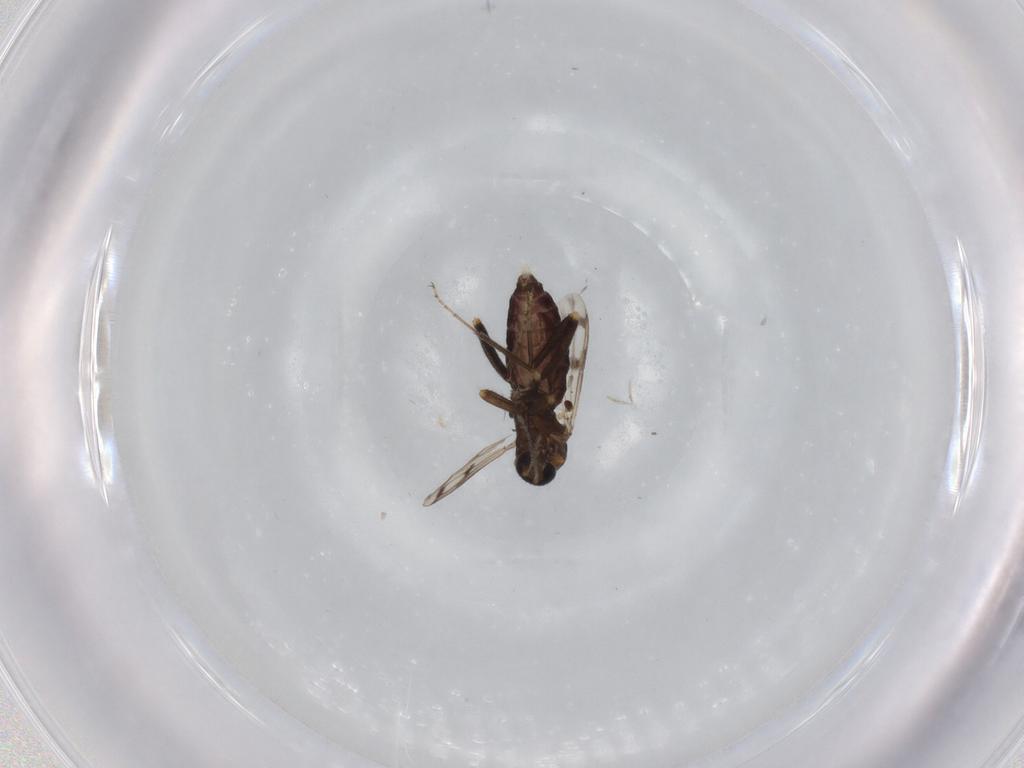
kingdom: Animalia
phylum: Arthropoda
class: Insecta
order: Diptera
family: Ceratopogonidae
